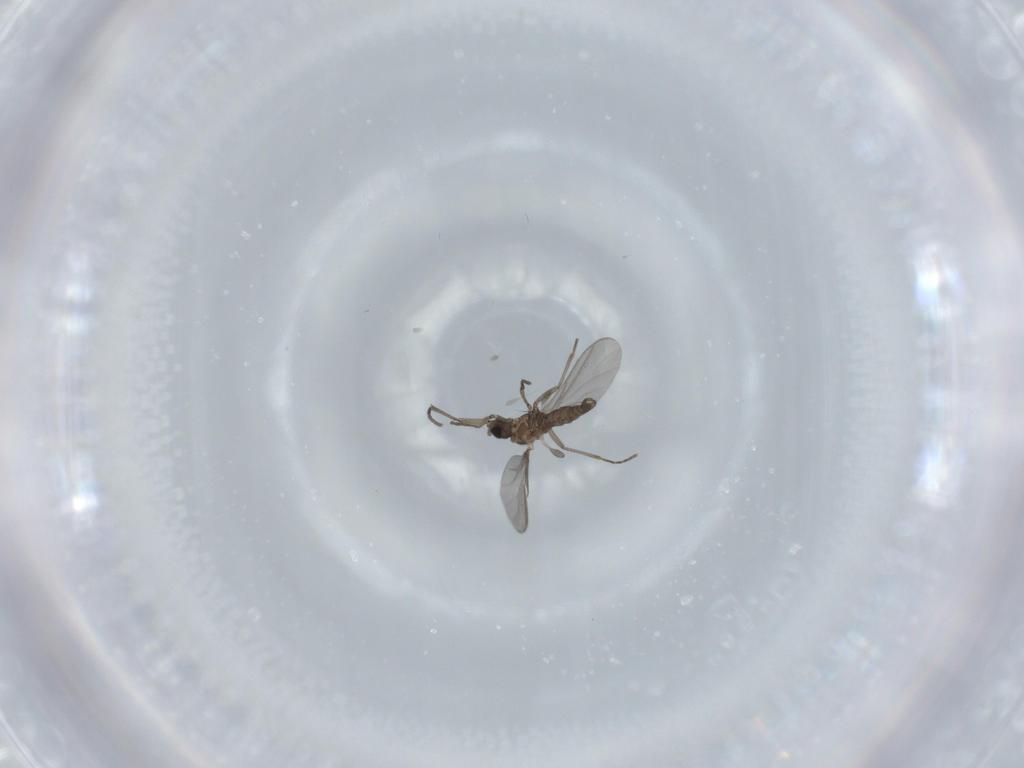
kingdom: Animalia
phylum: Arthropoda
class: Insecta
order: Diptera
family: Sciaridae
